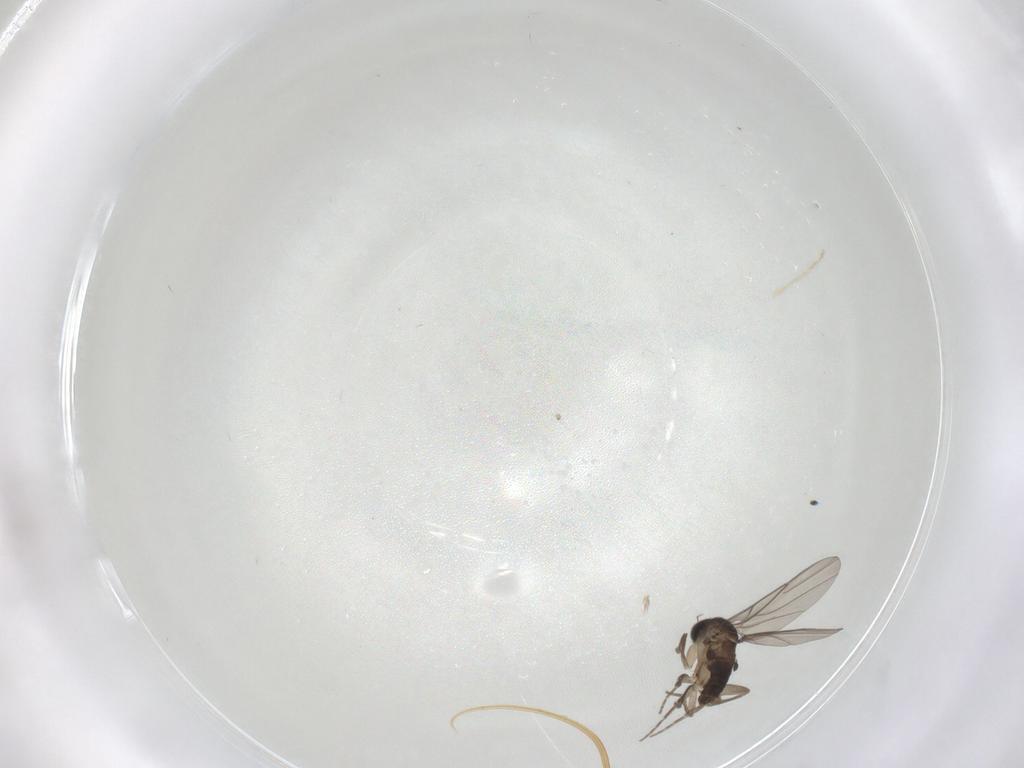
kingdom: Animalia
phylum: Arthropoda
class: Insecta
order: Diptera
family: Phoridae
